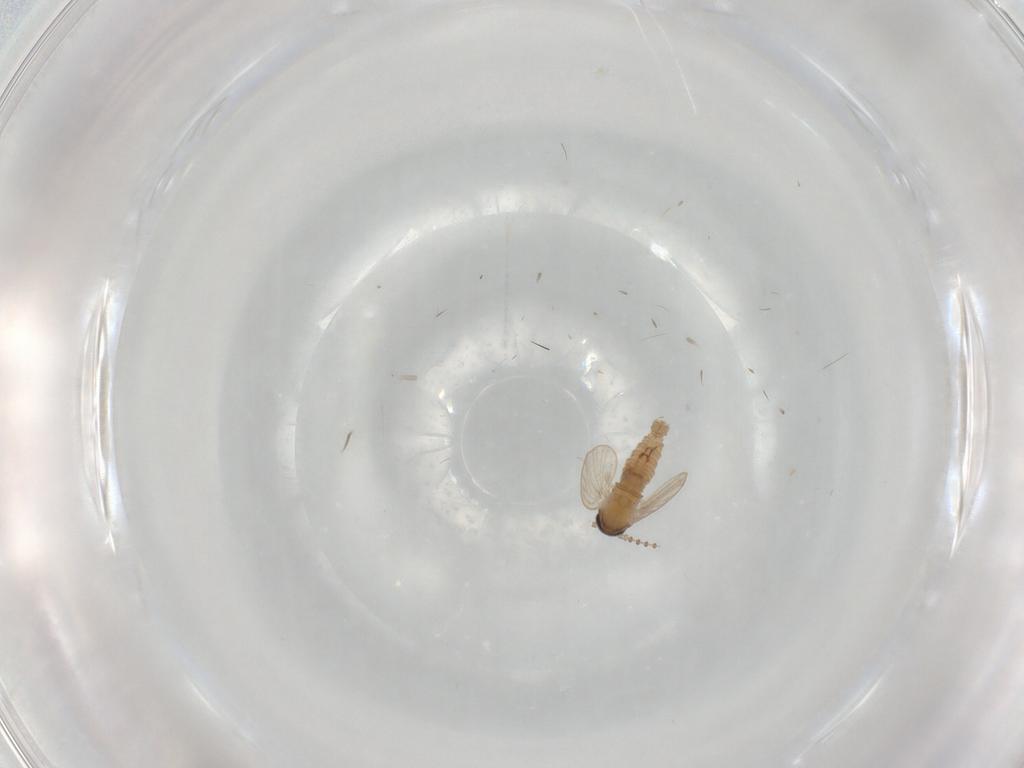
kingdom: Animalia
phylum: Arthropoda
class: Insecta
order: Diptera
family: Psychodidae
